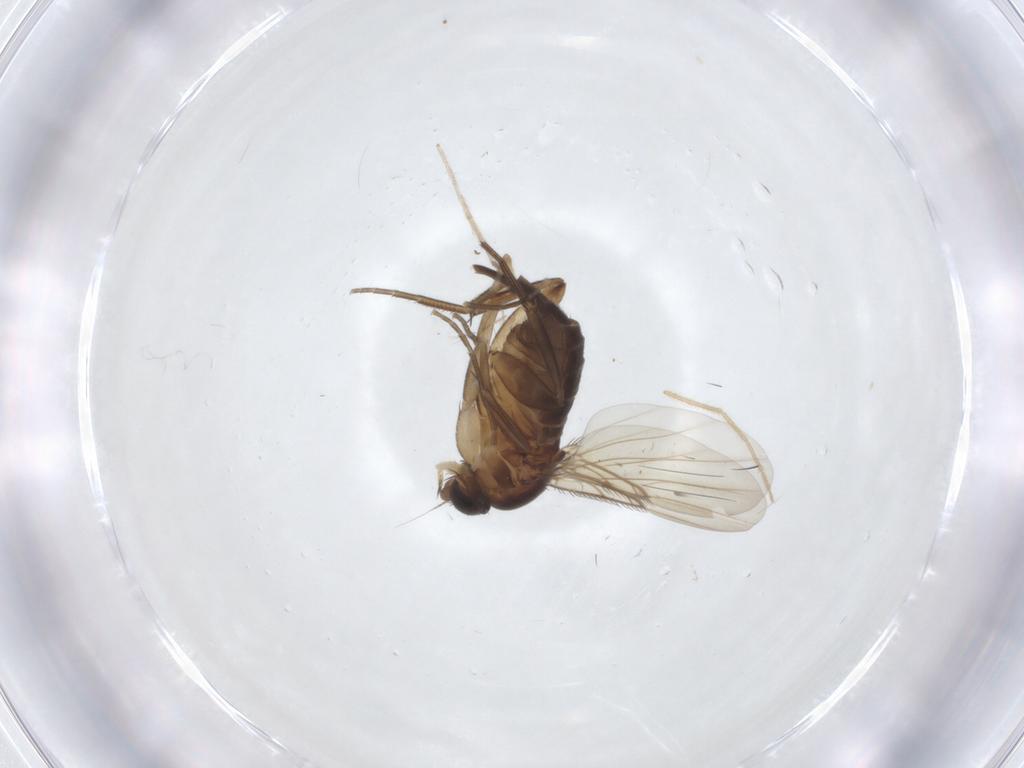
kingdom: Animalia
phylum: Arthropoda
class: Insecta
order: Diptera
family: Phoridae
